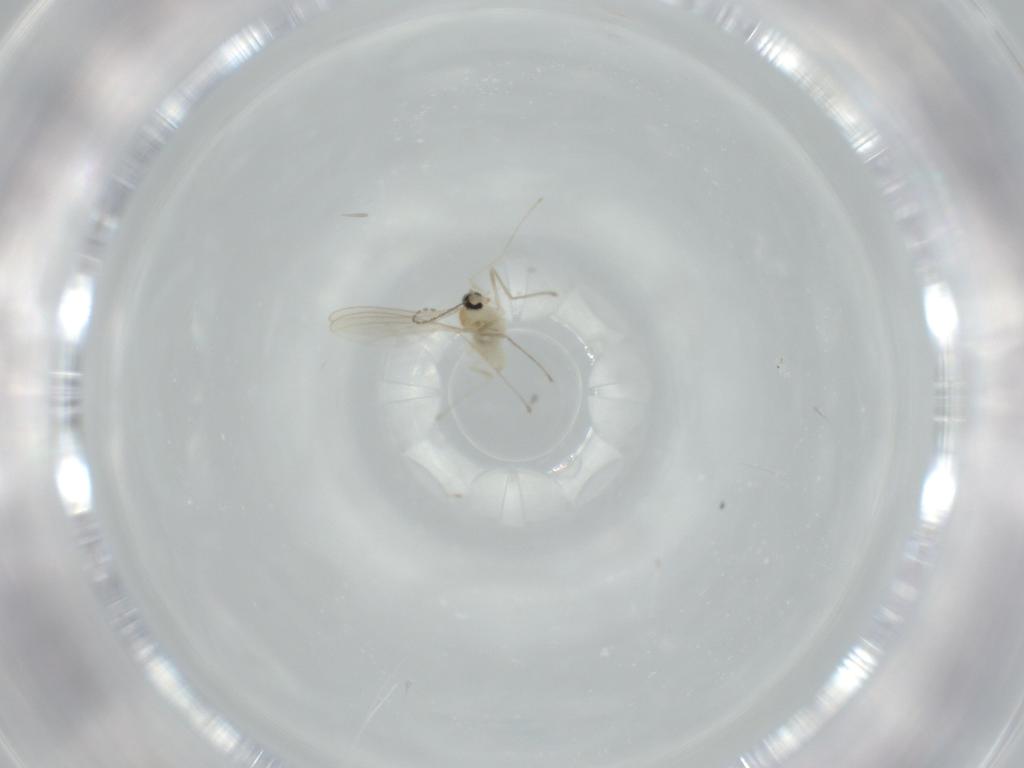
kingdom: Animalia
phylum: Arthropoda
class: Insecta
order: Diptera
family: Cecidomyiidae
